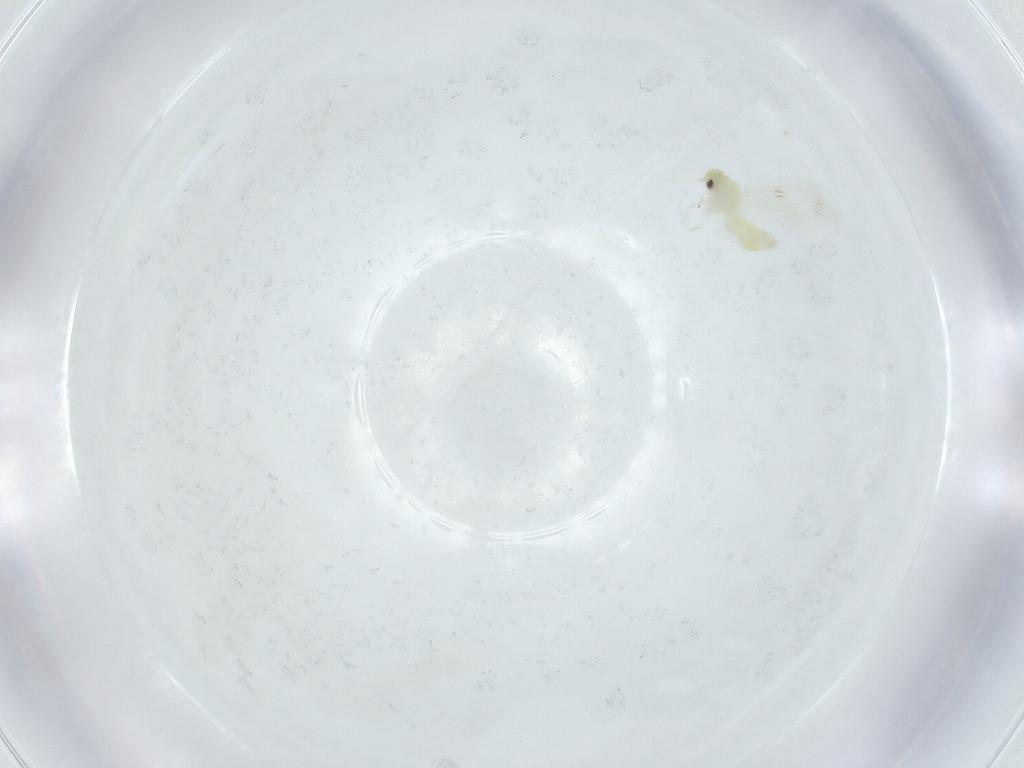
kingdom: Animalia
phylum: Arthropoda
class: Insecta
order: Hemiptera
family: Aleyrodidae
